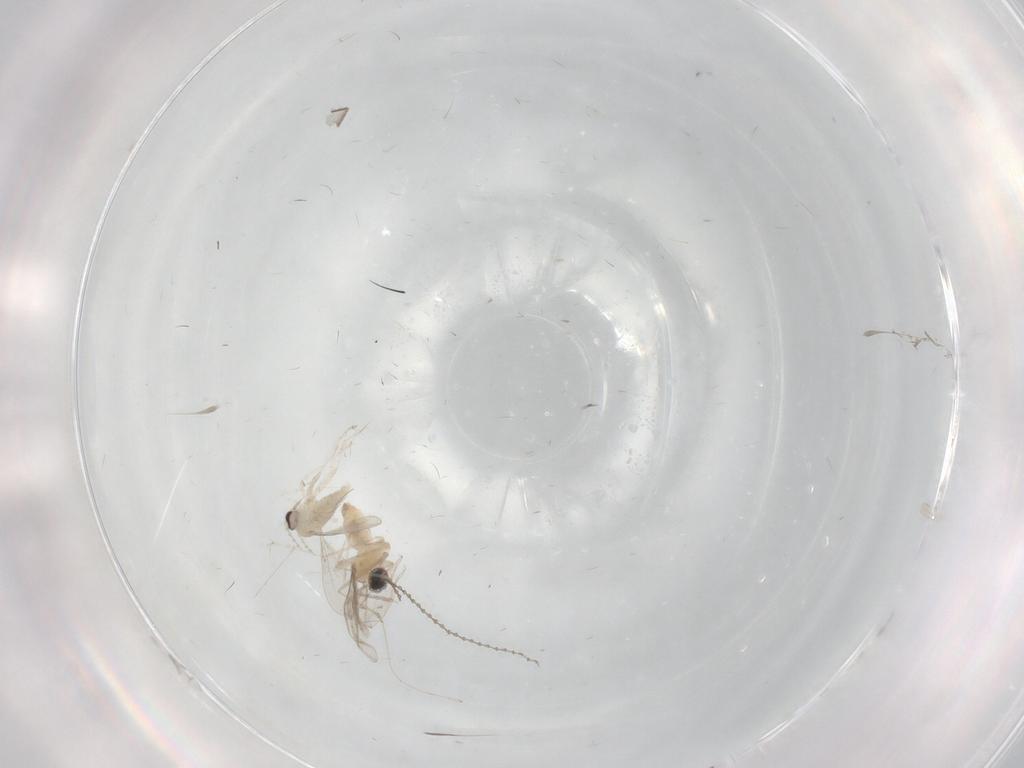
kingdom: Animalia
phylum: Arthropoda
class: Insecta
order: Diptera
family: Cecidomyiidae
